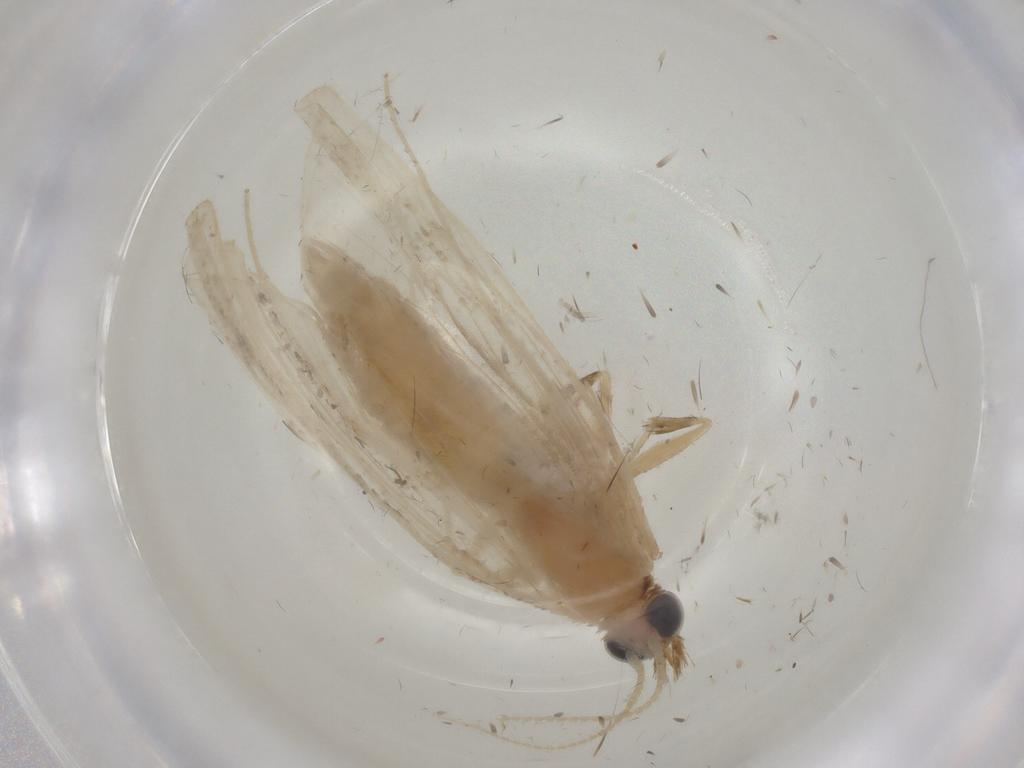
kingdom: Animalia
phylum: Arthropoda
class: Insecta
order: Lepidoptera
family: Crambidae
